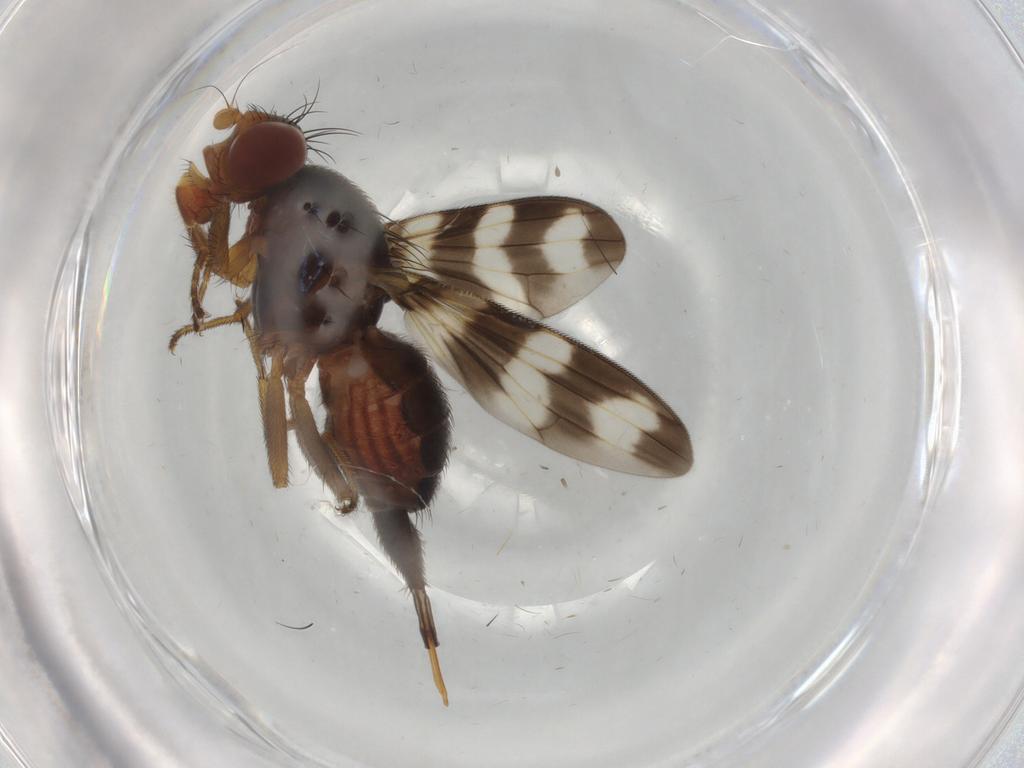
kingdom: Animalia
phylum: Arthropoda
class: Insecta
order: Diptera
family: Ulidiidae
